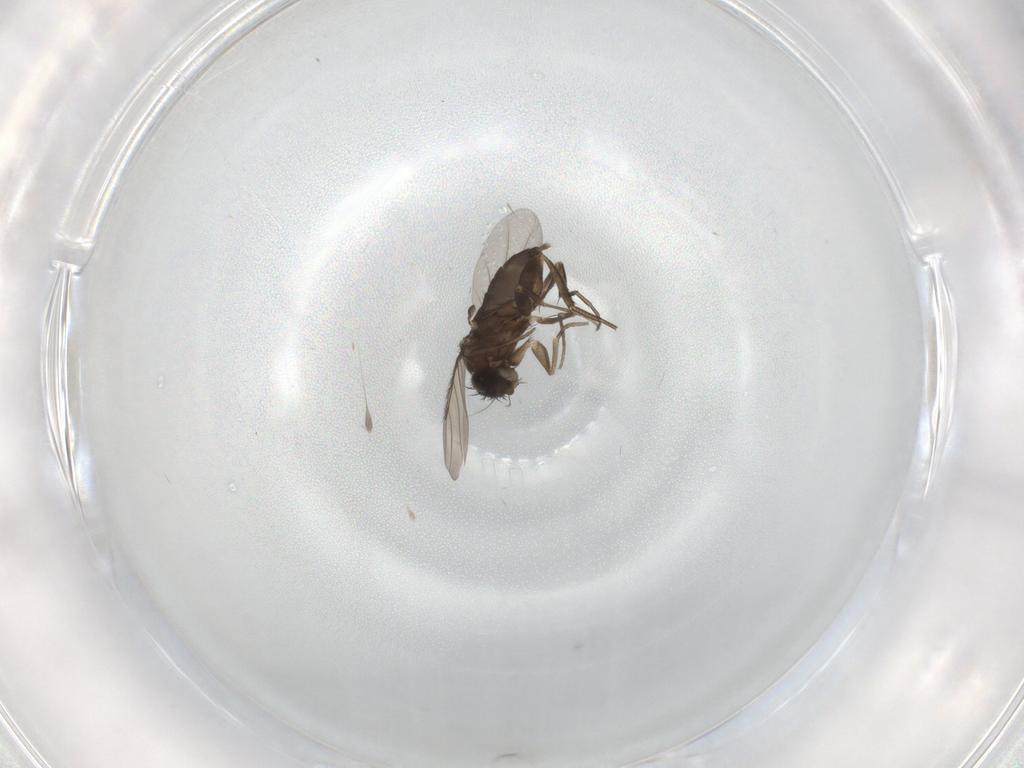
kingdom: Animalia
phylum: Arthropoda
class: Insecta
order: Diptera
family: Phoridae
